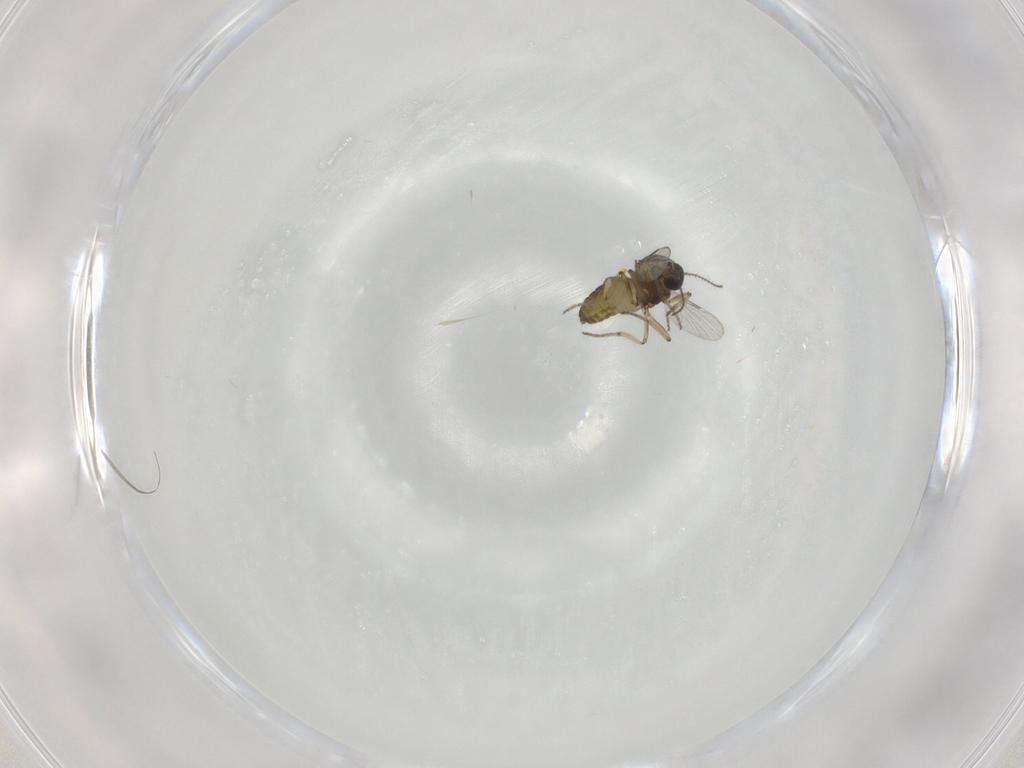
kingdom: Animalia
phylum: Arthropoda
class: Insecta
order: Diptera
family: Ceratopogonidae
